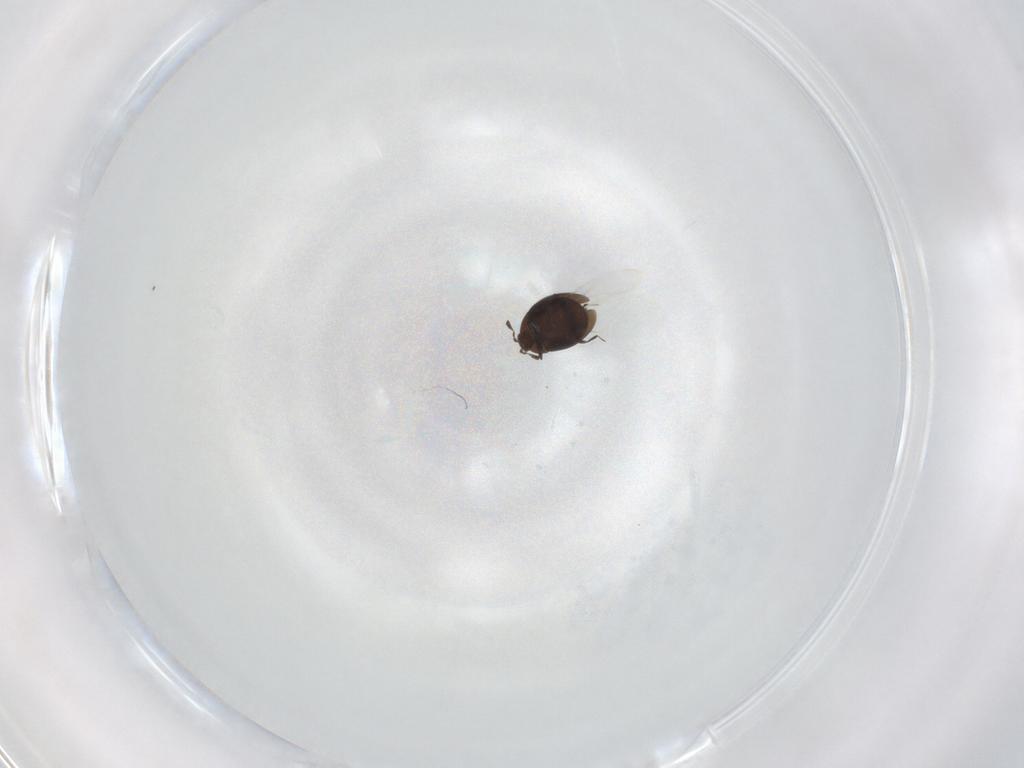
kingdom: Animalia
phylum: Arthropoda
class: Insecta
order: Coleoptera
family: Corylophidae
